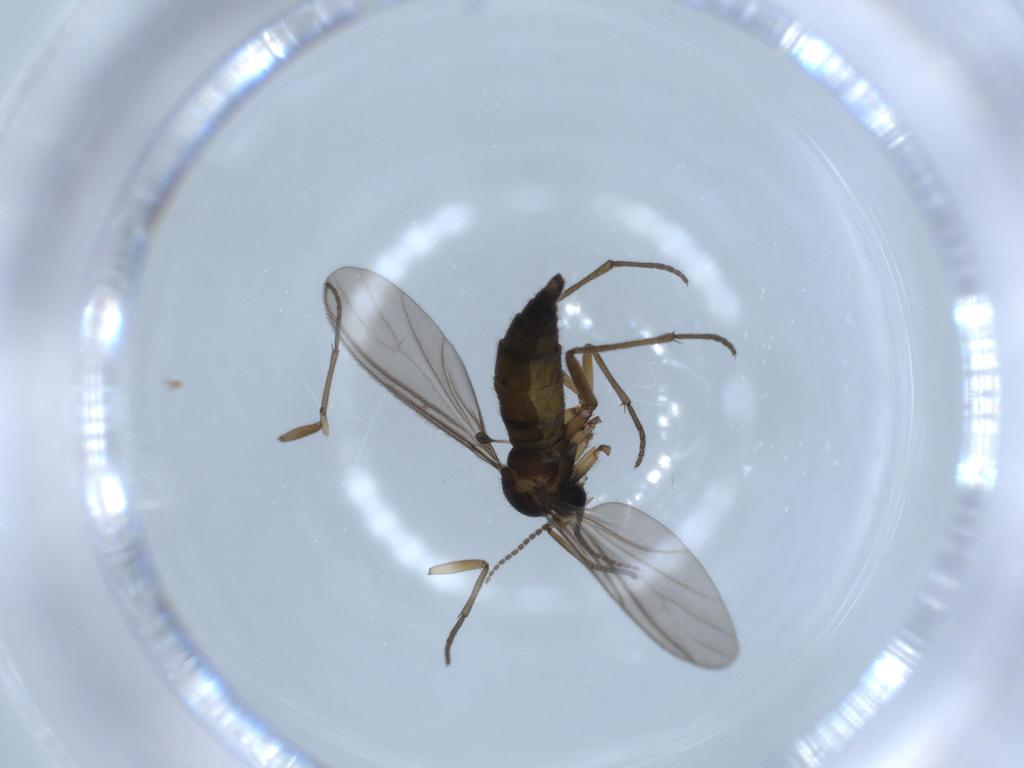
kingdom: Animalia
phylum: Arthropoda
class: Insecta
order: Diptera
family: Sciaridae
